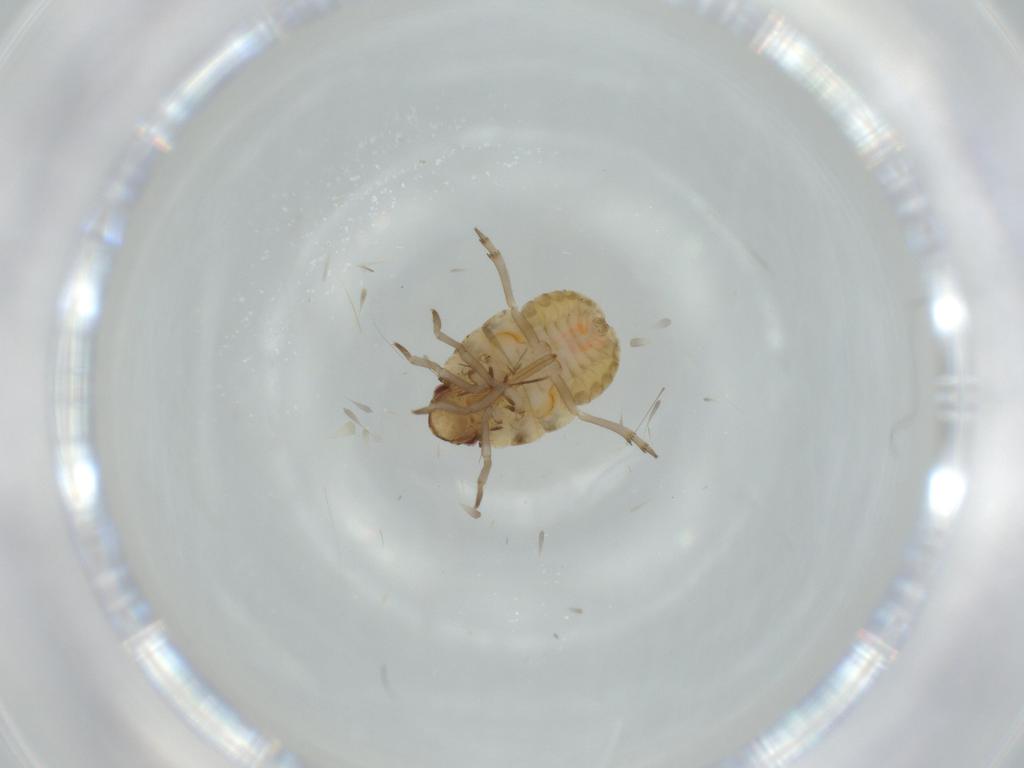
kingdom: Animalia
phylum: Arthropoda
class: Insecta
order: Hemiptera
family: Flatidae
